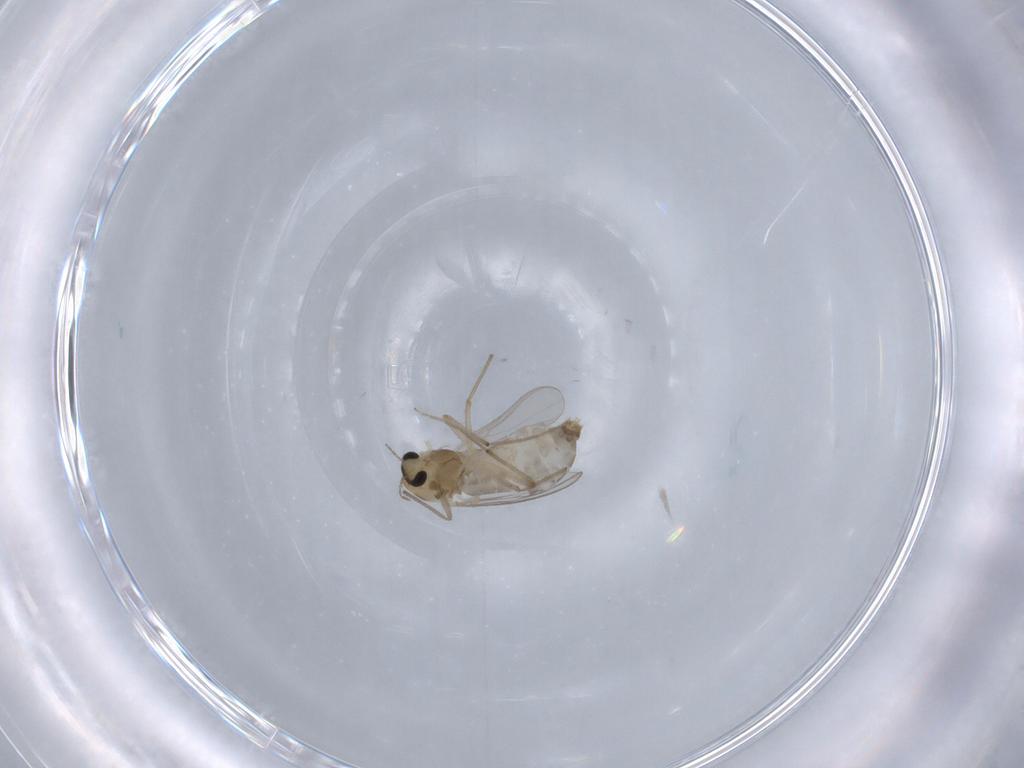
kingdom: Animalia
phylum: Arthropoda
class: Insecta
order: Diptera
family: Chironomidae
